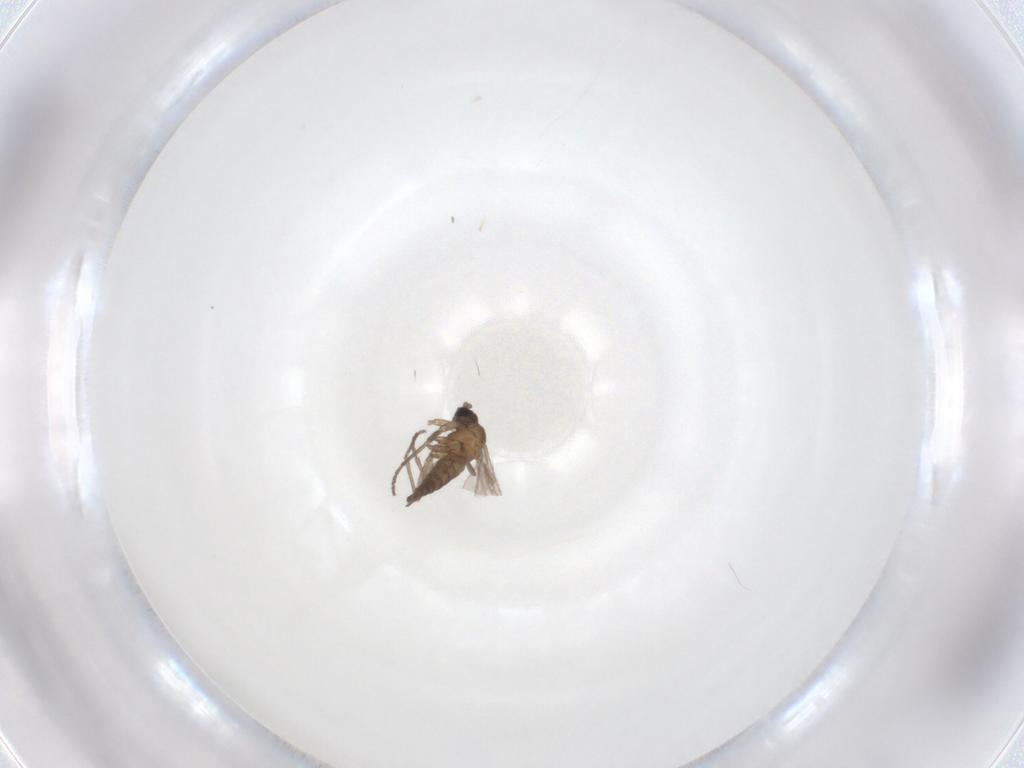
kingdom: Animalia
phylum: Arthropoda
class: Insecta
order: Diptera
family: Sciaridae
